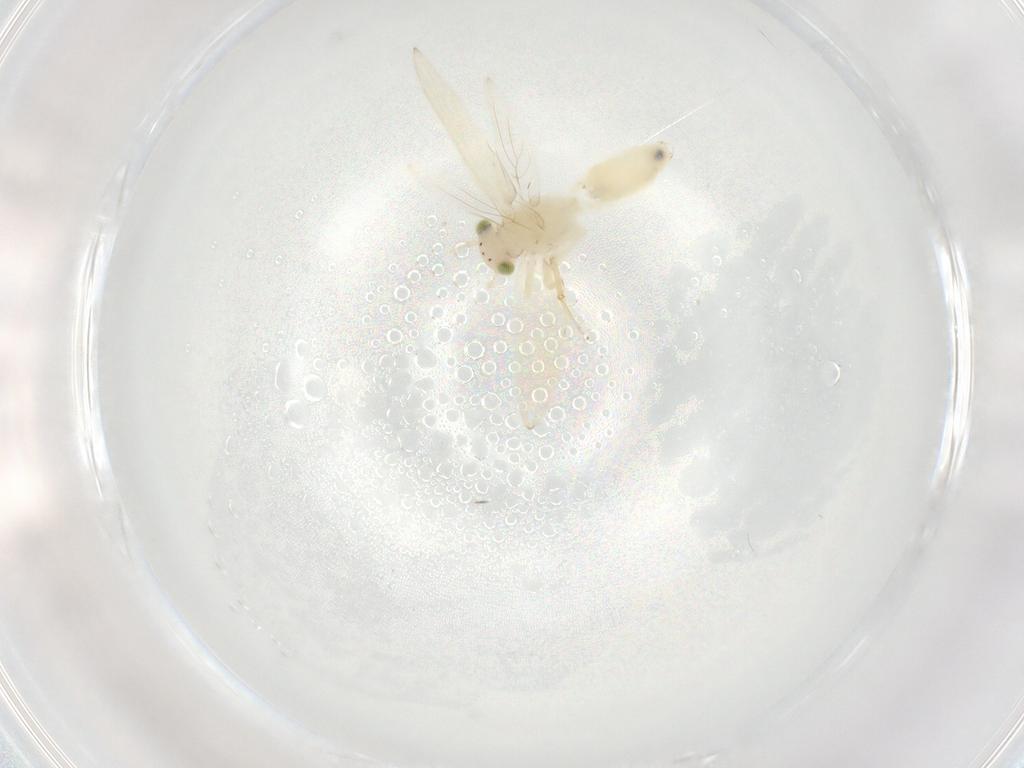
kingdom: Animalia
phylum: Arthropoda
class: Insecta
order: Psocodea
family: Lepidopsocidae
